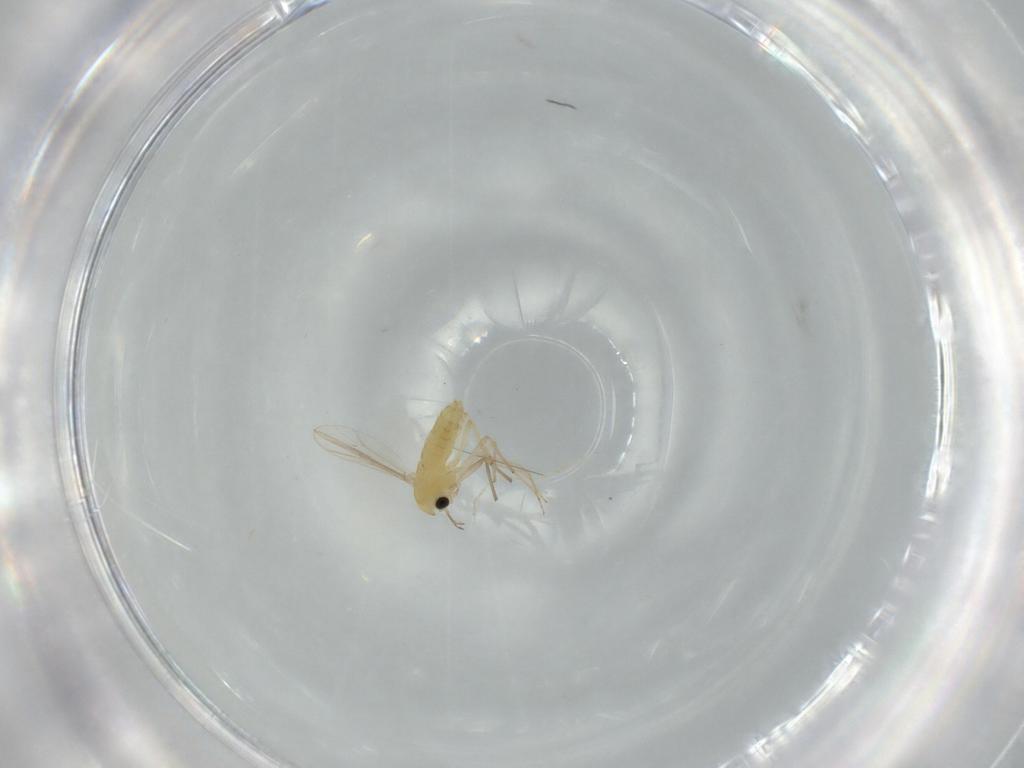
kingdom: Animalia
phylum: Arthropoda
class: Insecta
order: Diptera
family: Chironomidae
